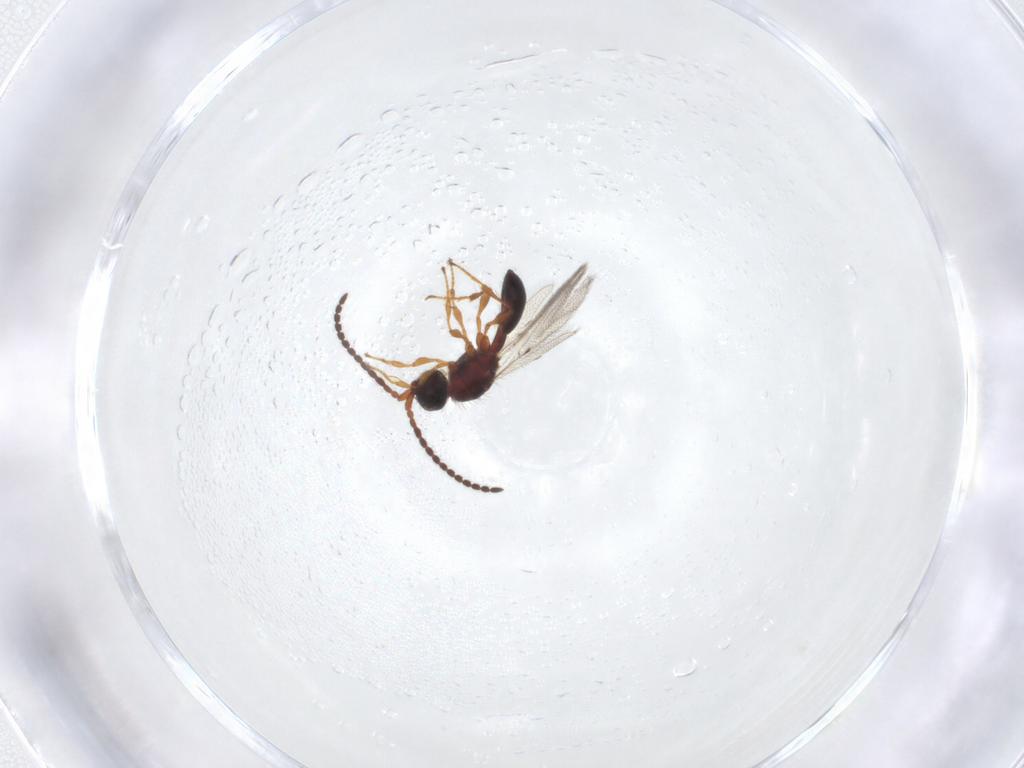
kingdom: Animalia
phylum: Arthropoda
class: Insecta
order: Hymenoptera
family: Diapriidae
